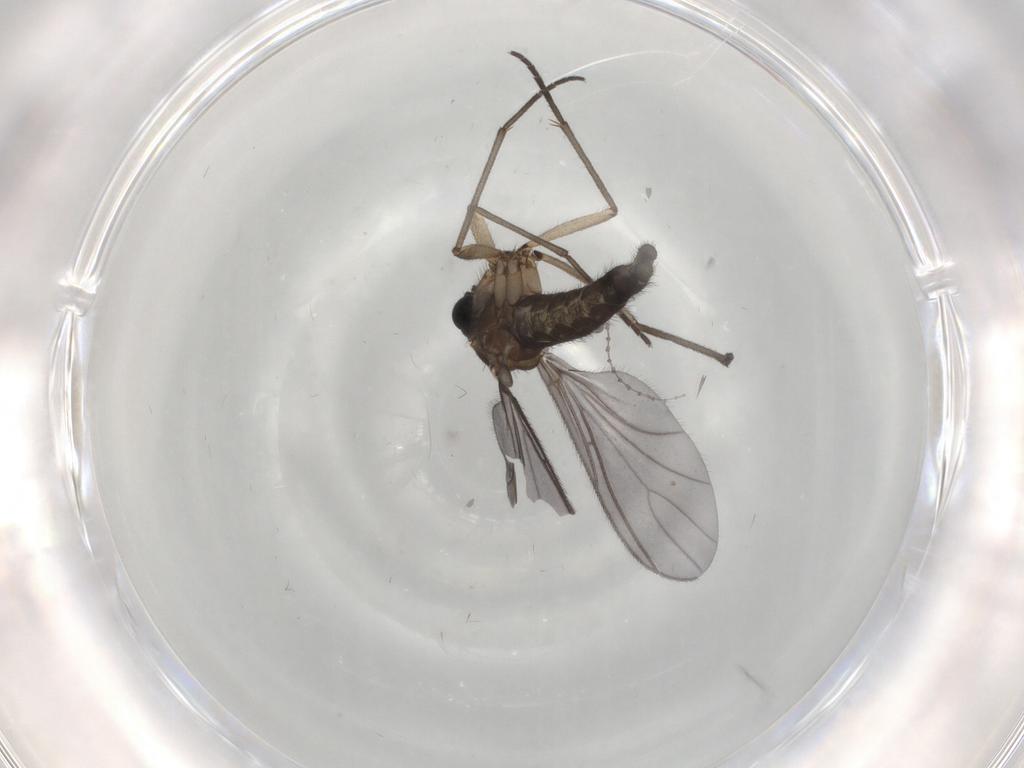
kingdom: Animalia
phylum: Arthropoda
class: Insecta
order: Diptera
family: Sciaridae
